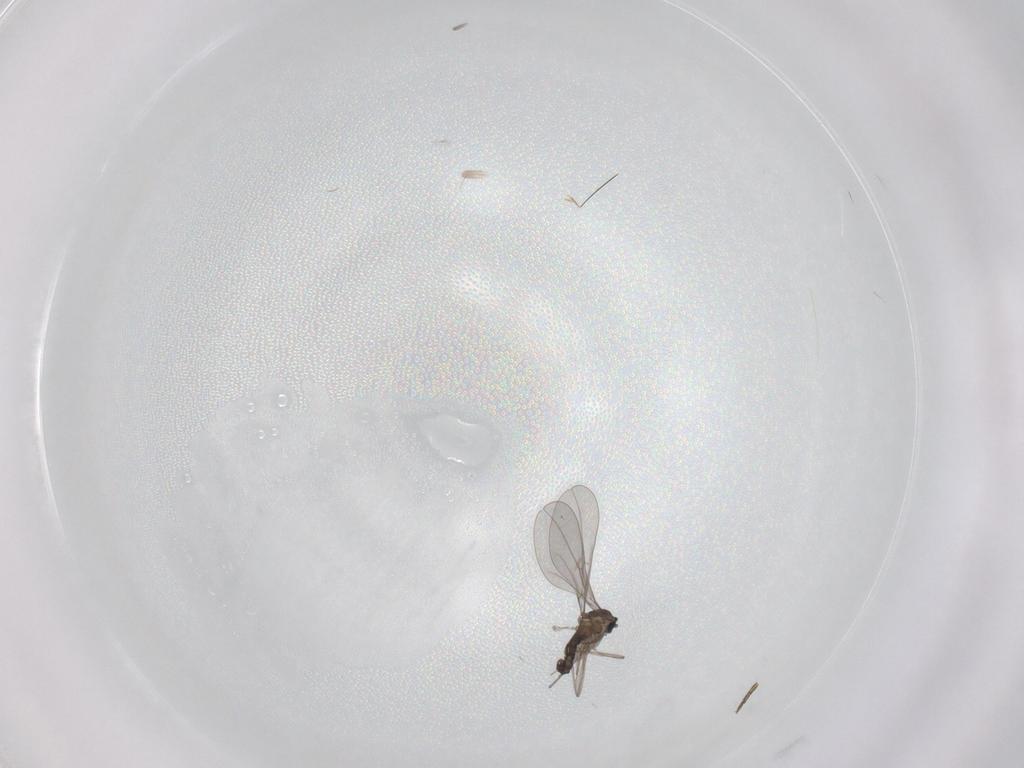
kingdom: Animalia
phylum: Arthropoda
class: Insecta
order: Diptera
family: Cecidomyiidae
